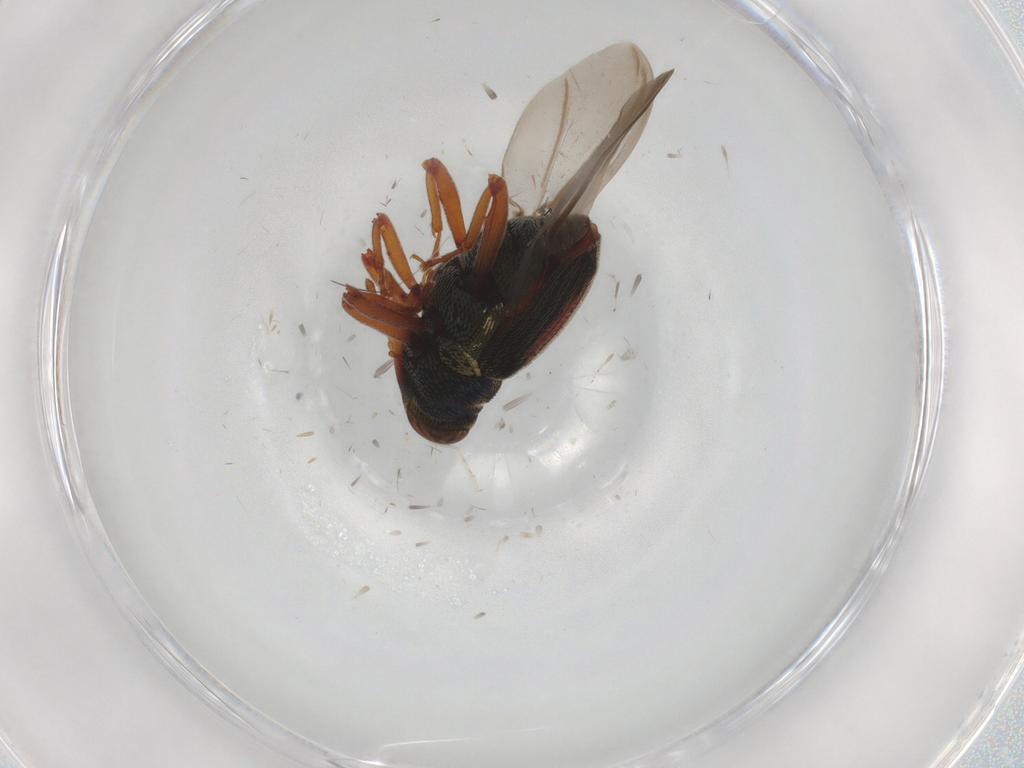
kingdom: Animalia
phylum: Arthropoda
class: Insecta
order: Coleoptera
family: Curculionidae
